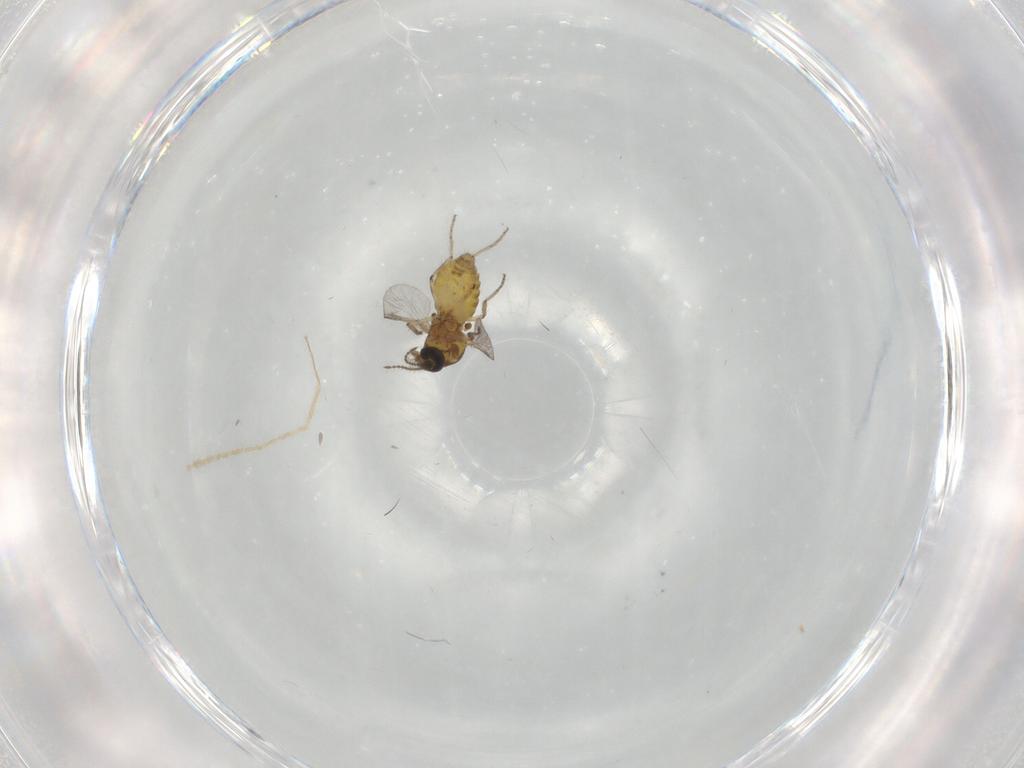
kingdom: Animalia
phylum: Arthropoda
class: Insecta
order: Diptera
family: Ceratopogonidae
